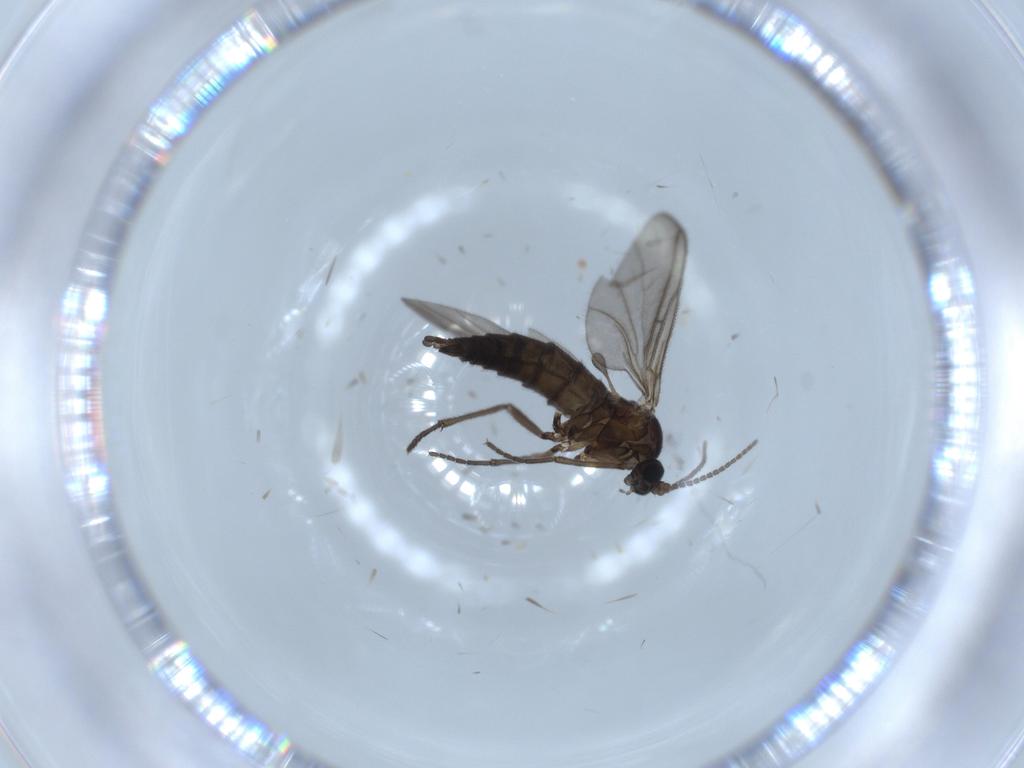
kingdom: Animalia
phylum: Arthropoda
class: Insecta
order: Diptera
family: Sciaridae
